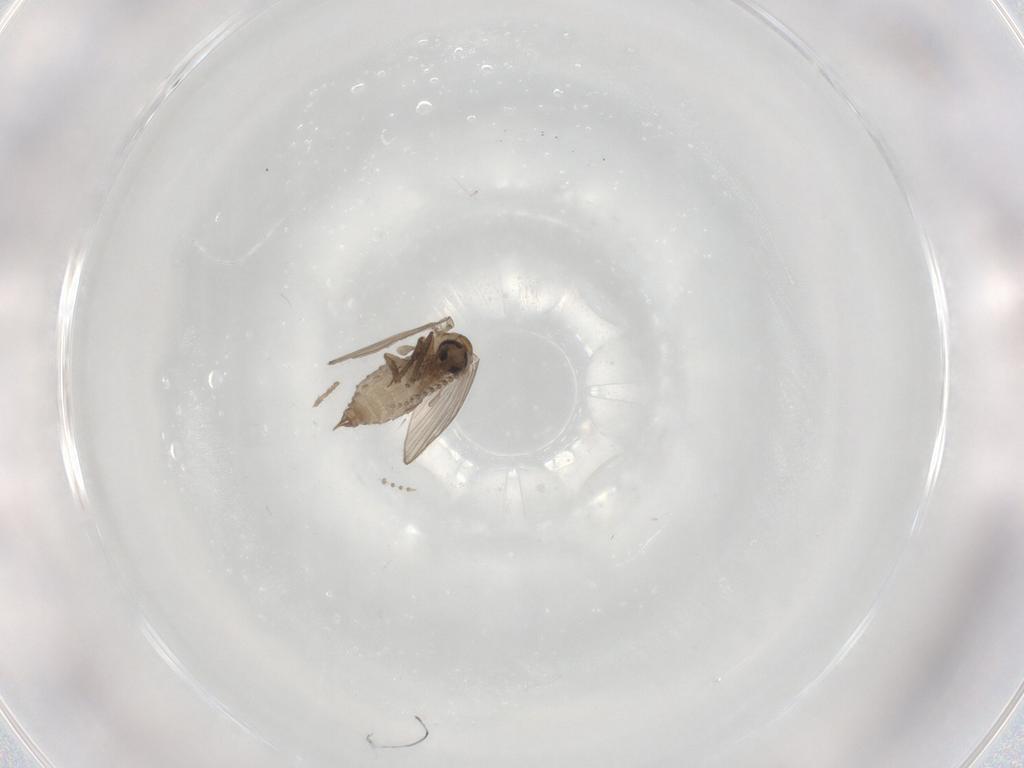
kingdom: Animalia
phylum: Arthropoda
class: Insecta
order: Diptera
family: Psychodidae
